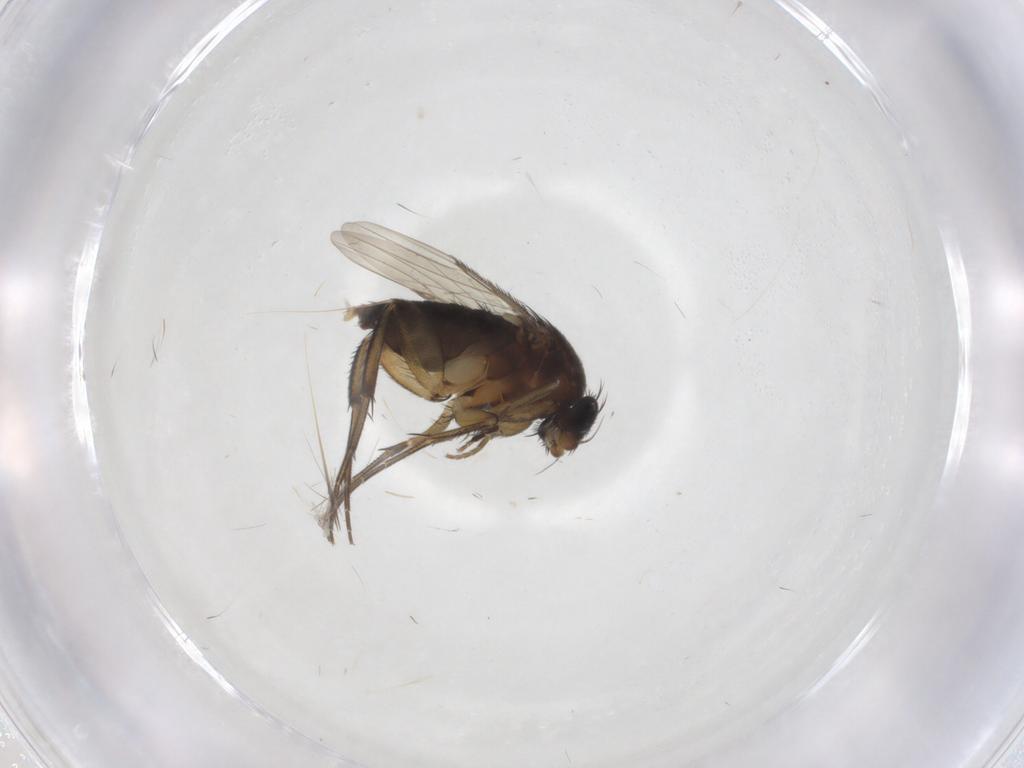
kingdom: Animalia
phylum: Arthropoda
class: Insecta
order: Diptera
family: Phoridae
